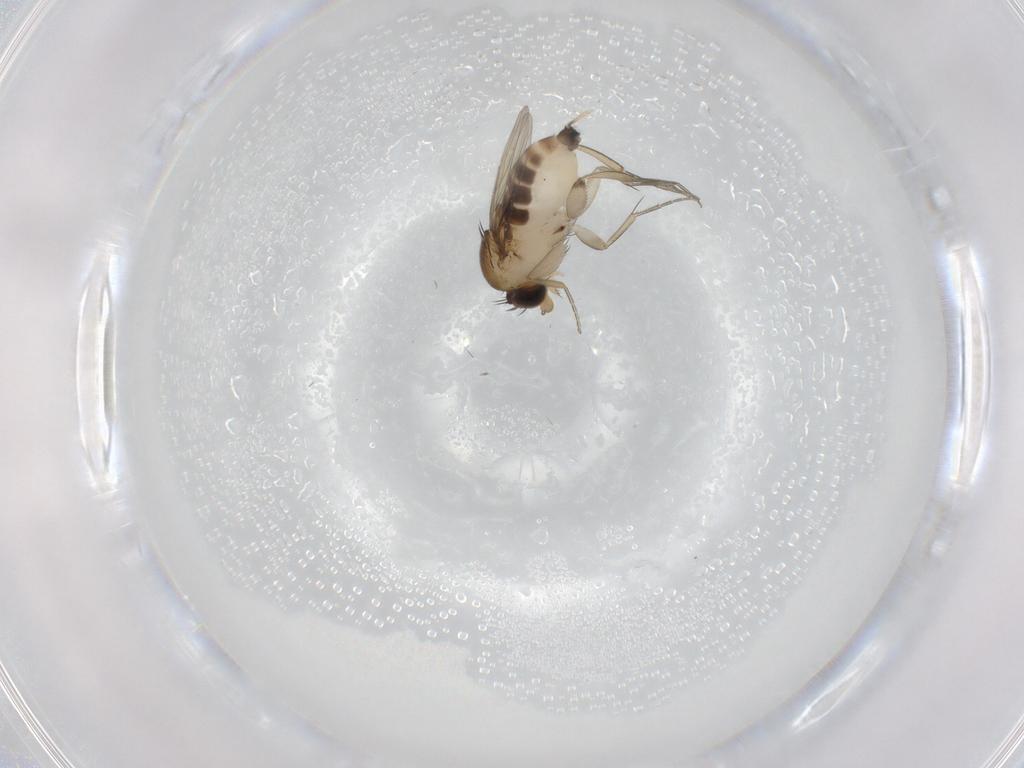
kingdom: Animalia
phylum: Arthropoda
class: Insecta
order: Diptera
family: Phoridae
